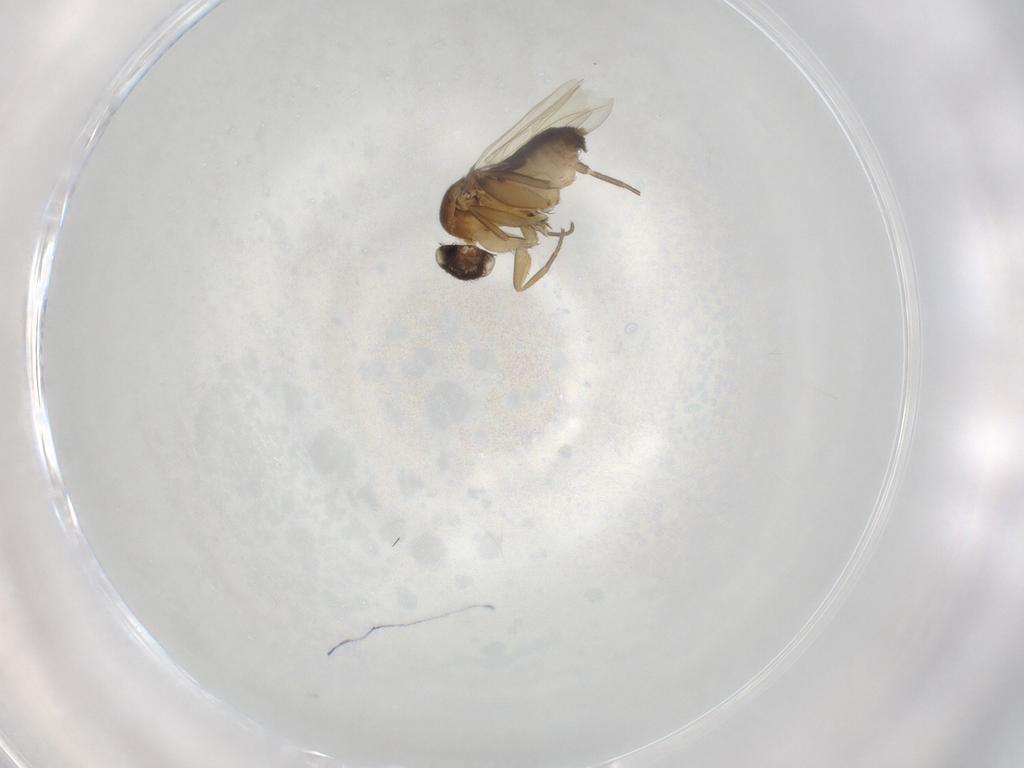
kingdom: Animalia
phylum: Arthropoda
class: Insecta
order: Diptera
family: Phoridae
